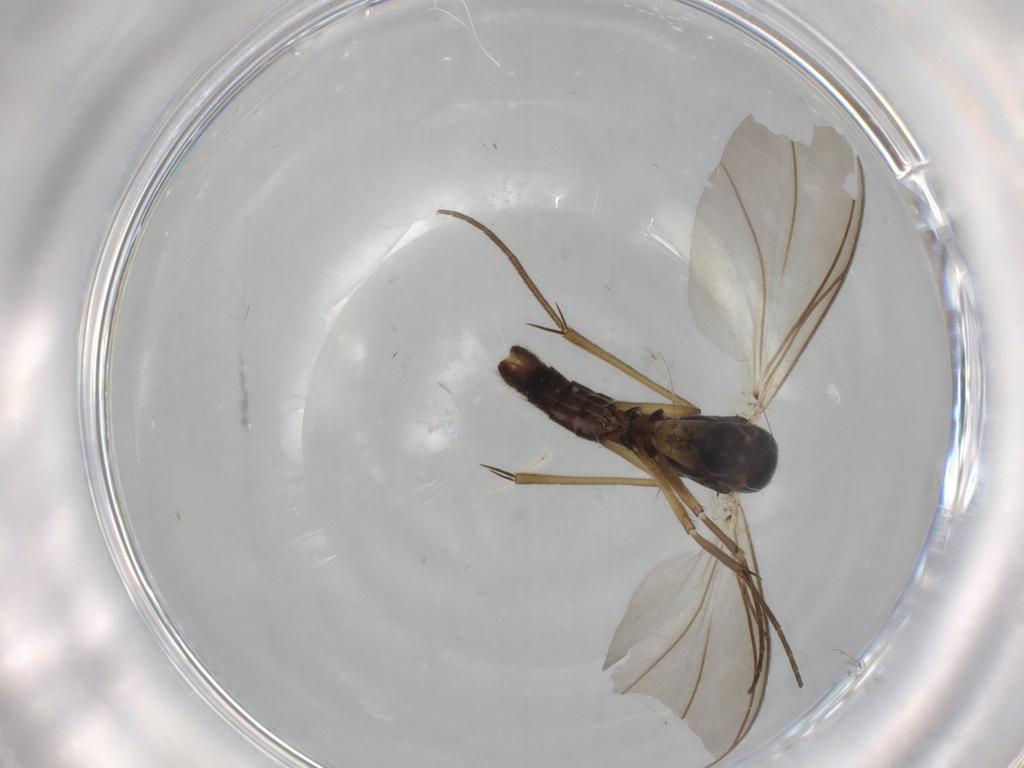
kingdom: Animalia
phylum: Arthropoda
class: Insecta
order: Diptera
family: Mycetophilidae
